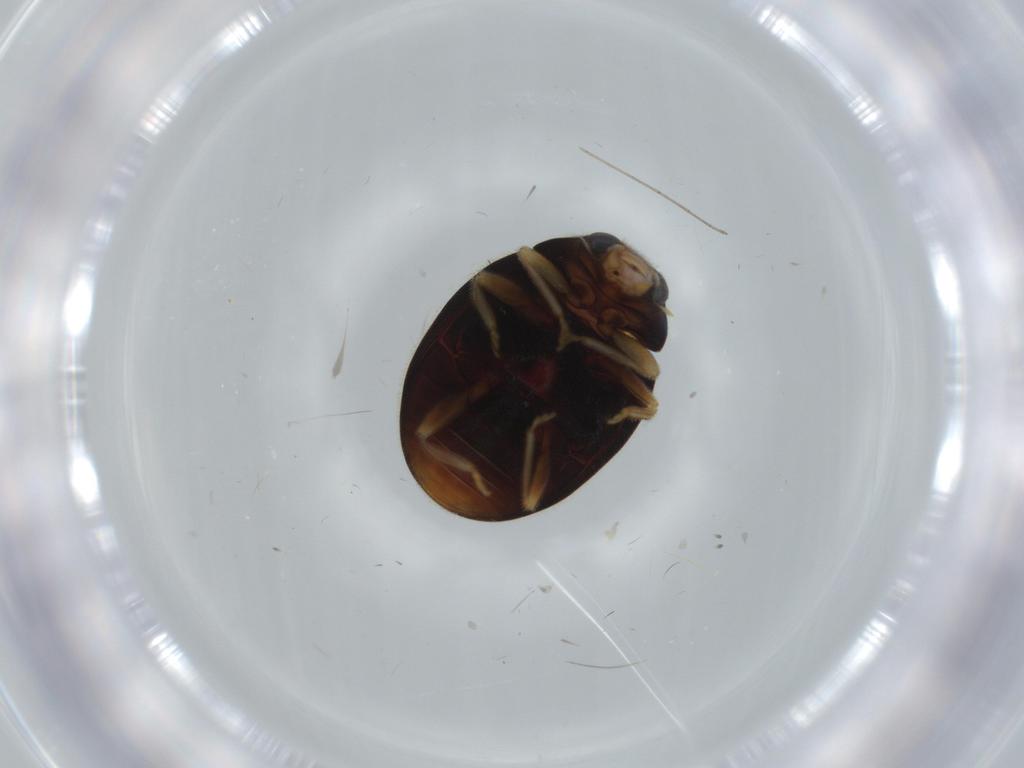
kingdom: Animalia
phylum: Arthropoda
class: Insecta
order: Coleoptera
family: Coccinellidae
